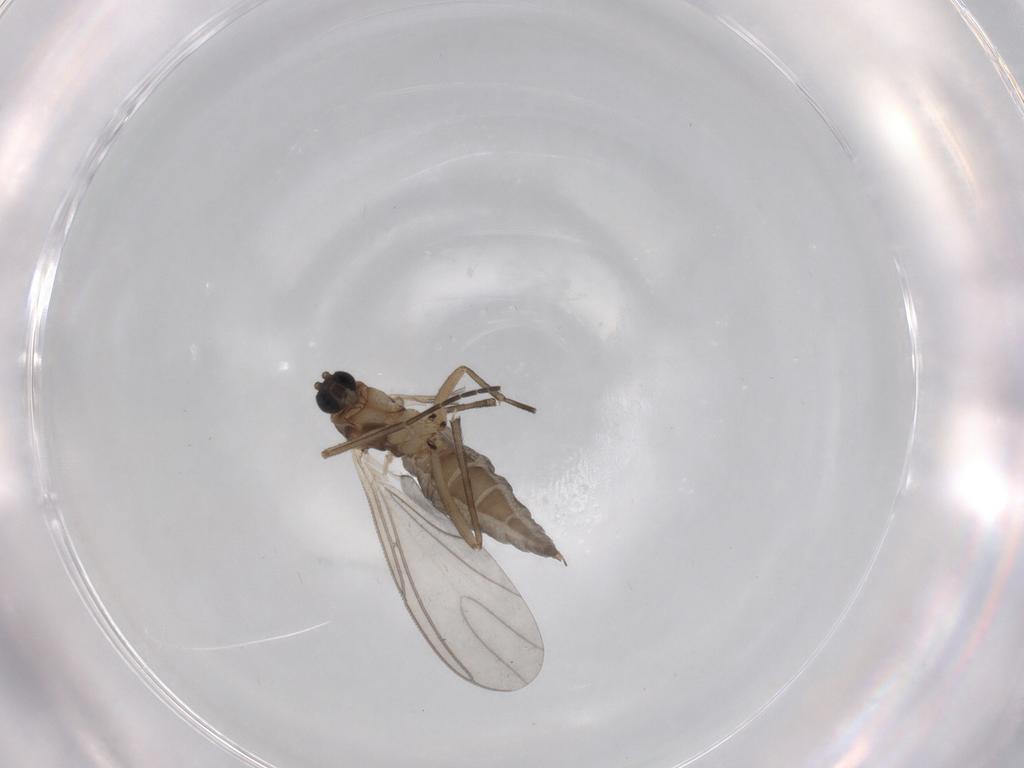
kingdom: Animalia
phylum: Arthropoda
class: Insecta
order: Diptera
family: Sciaridae
